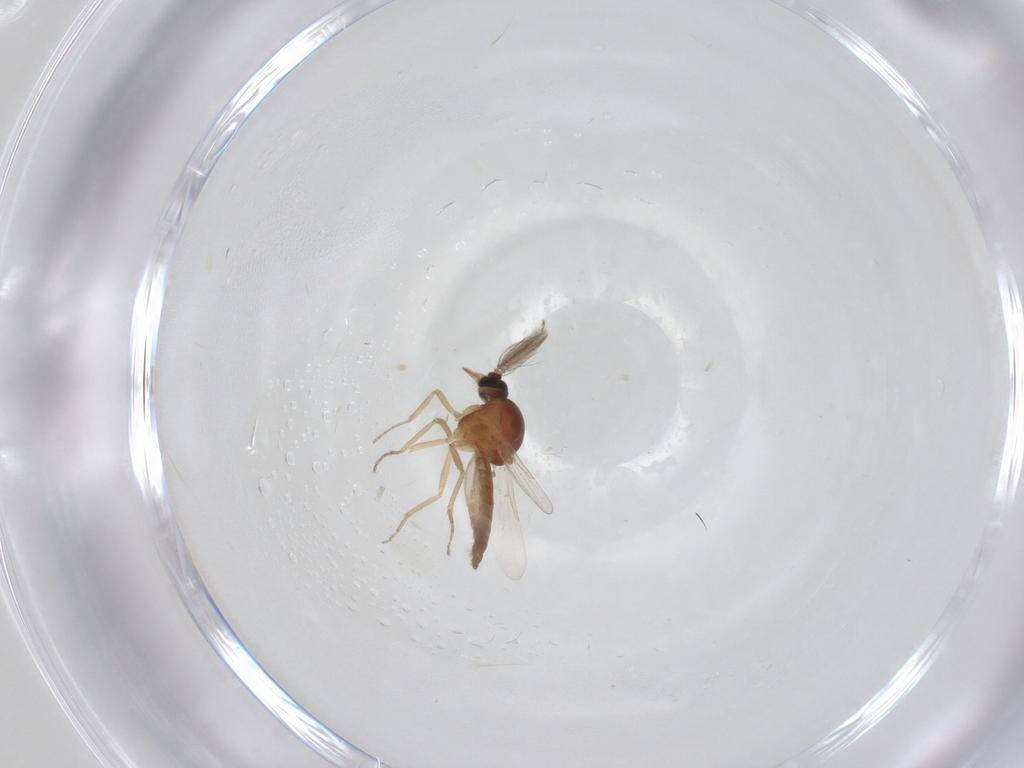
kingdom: Animalia
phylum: Arthropoda
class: Insecta
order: Diptera
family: Ceratopogonidae
